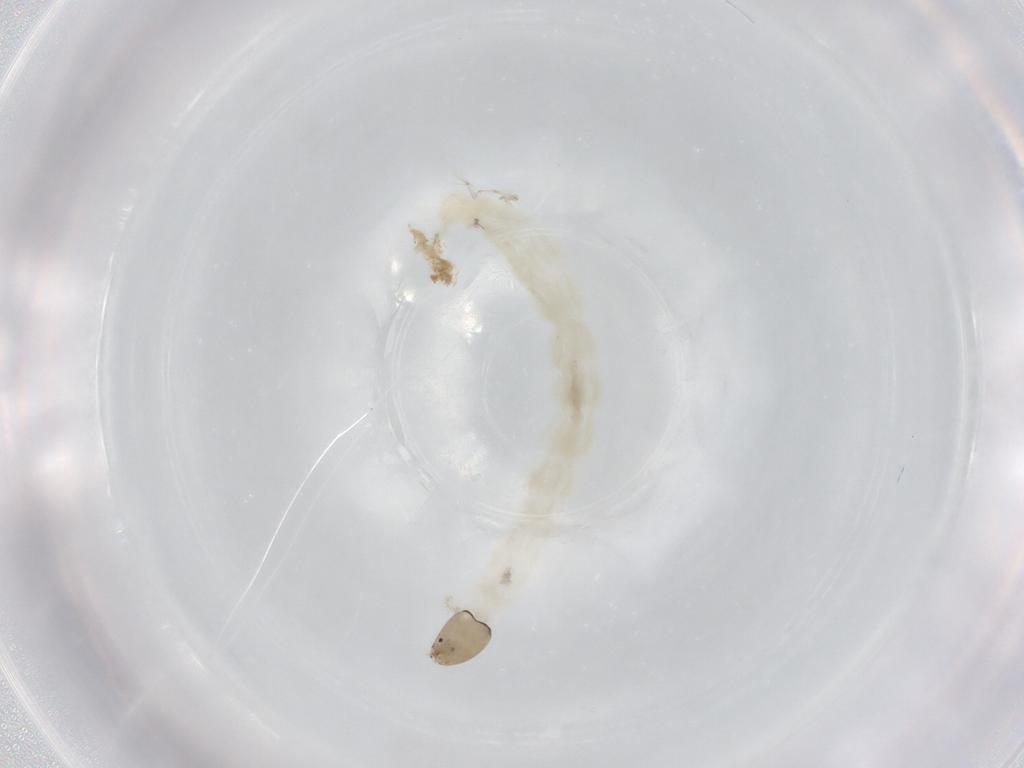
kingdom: Animalia
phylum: Arthropoda
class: Insecta
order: Diptera
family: Chironomidae
